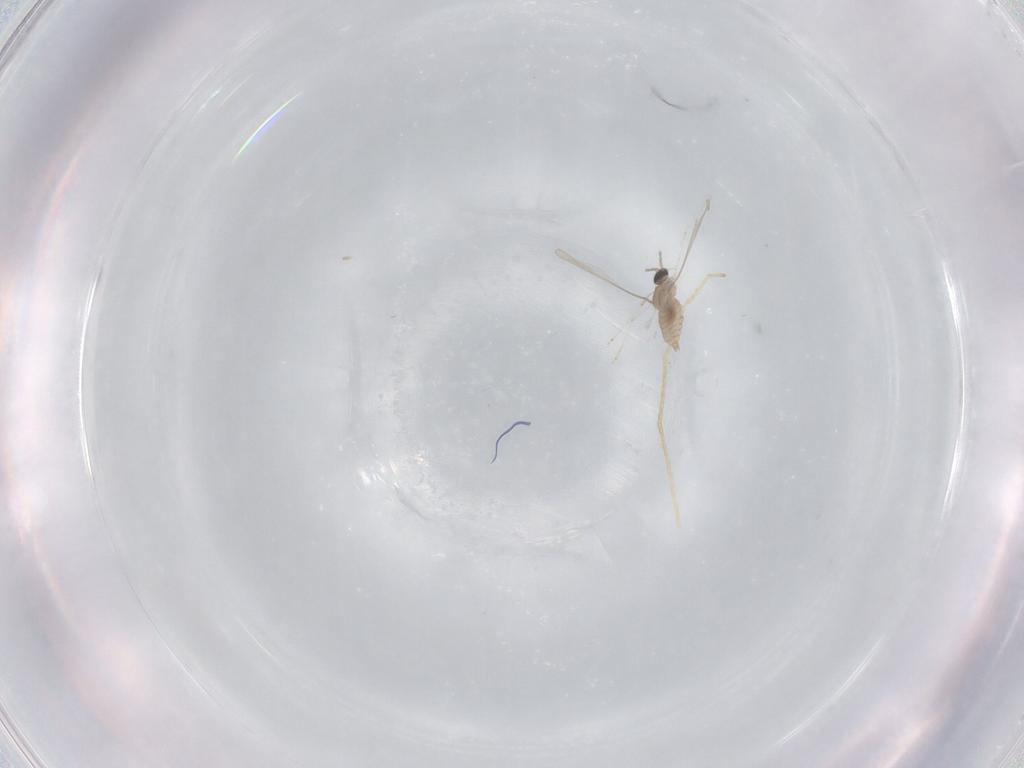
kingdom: Animalia
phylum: Arthropoda
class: Insecta
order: Diptera
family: Cecidomyiidae
